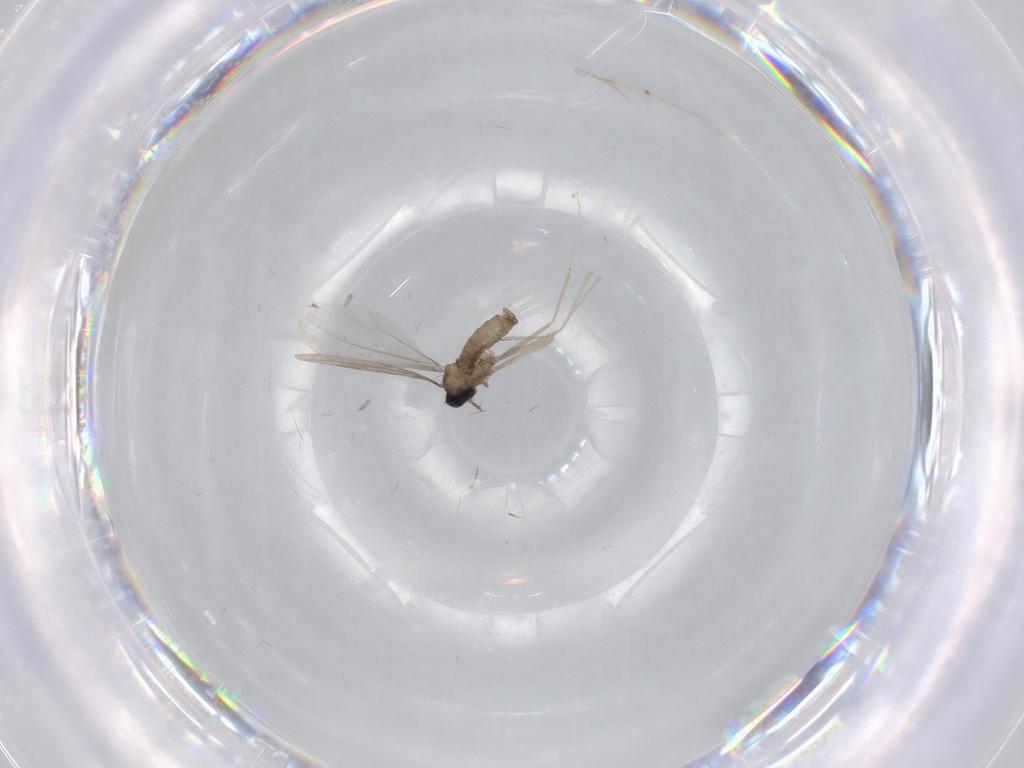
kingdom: Animalia
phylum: Arthropoda
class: Insecta
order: Diptera
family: Cecidomyiidae
